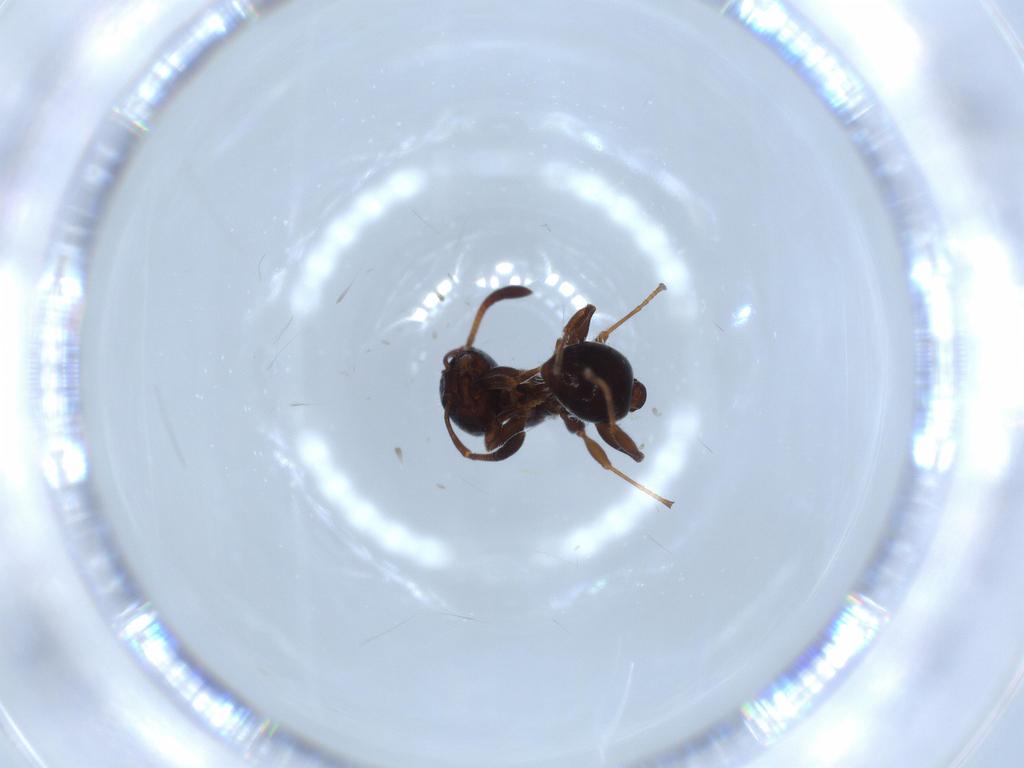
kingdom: Animalia
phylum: Arthropoda
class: Insecta
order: Hymenoptera
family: Formicidae
